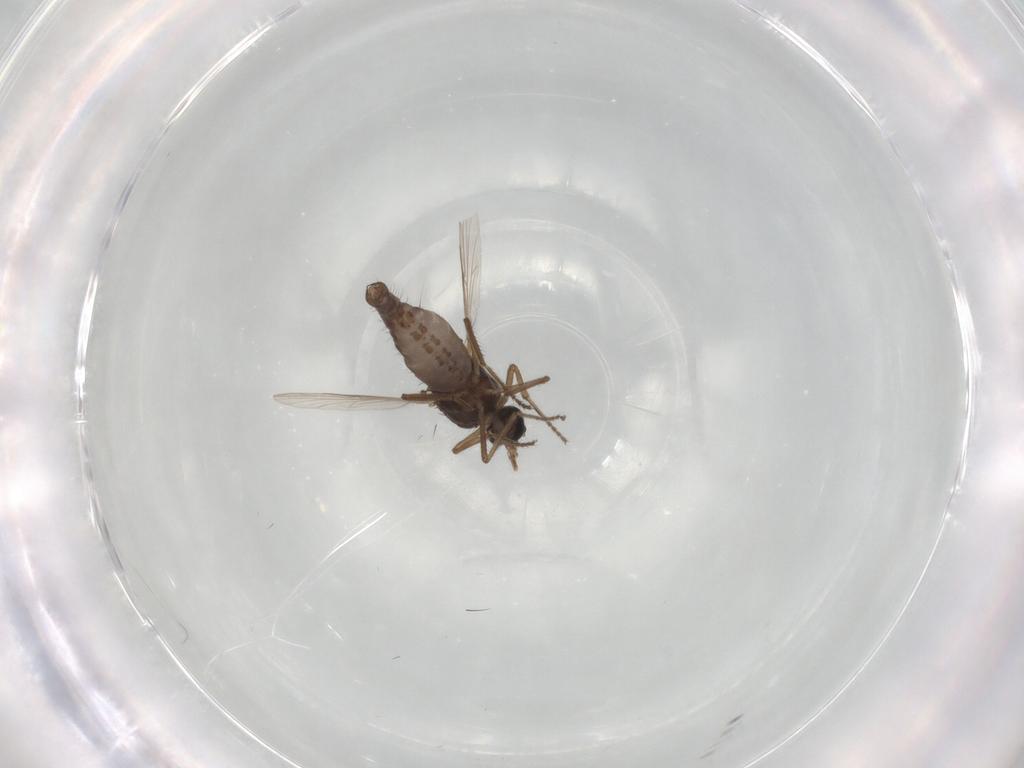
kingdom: Animalia
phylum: Arthropoda
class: Insecta
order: Diptera
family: Ceratopogonidae
